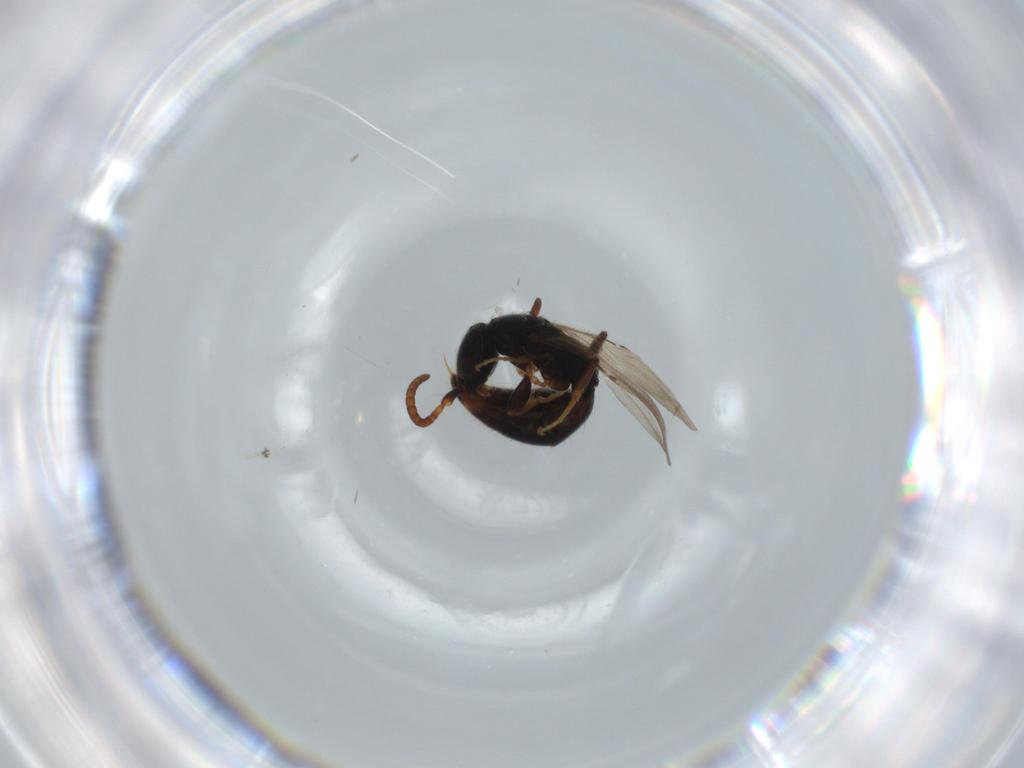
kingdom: Animalia
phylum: Arthropoda
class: Insecta
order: Hymenoptera
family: Bethylidae
